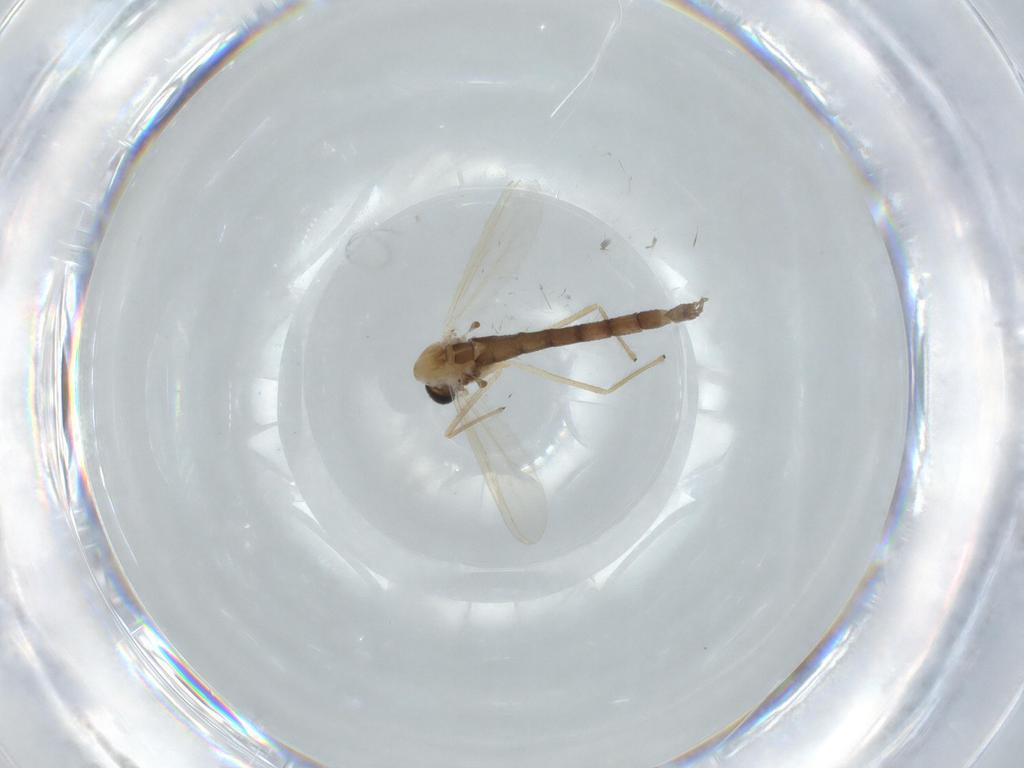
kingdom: Animalia
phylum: Arthropoda
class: Insecta
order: Diptera
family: Chironomidae
